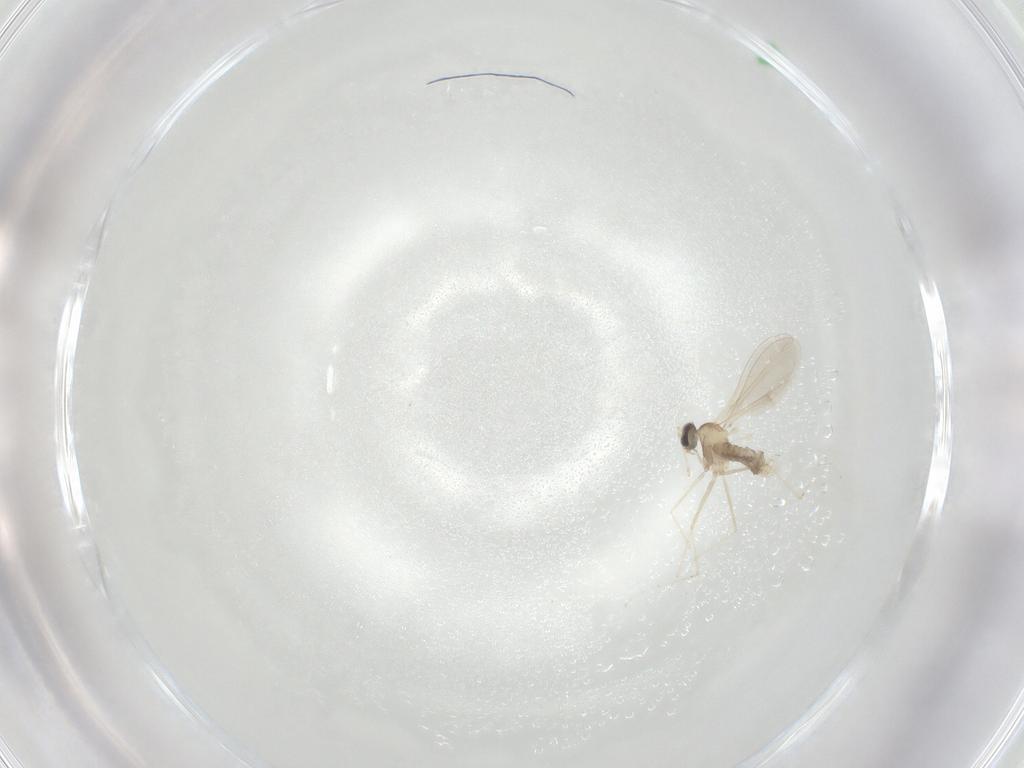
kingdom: Animalia
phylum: Arthropoda
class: Insecta
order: Diptera
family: Cecidomyiidae
